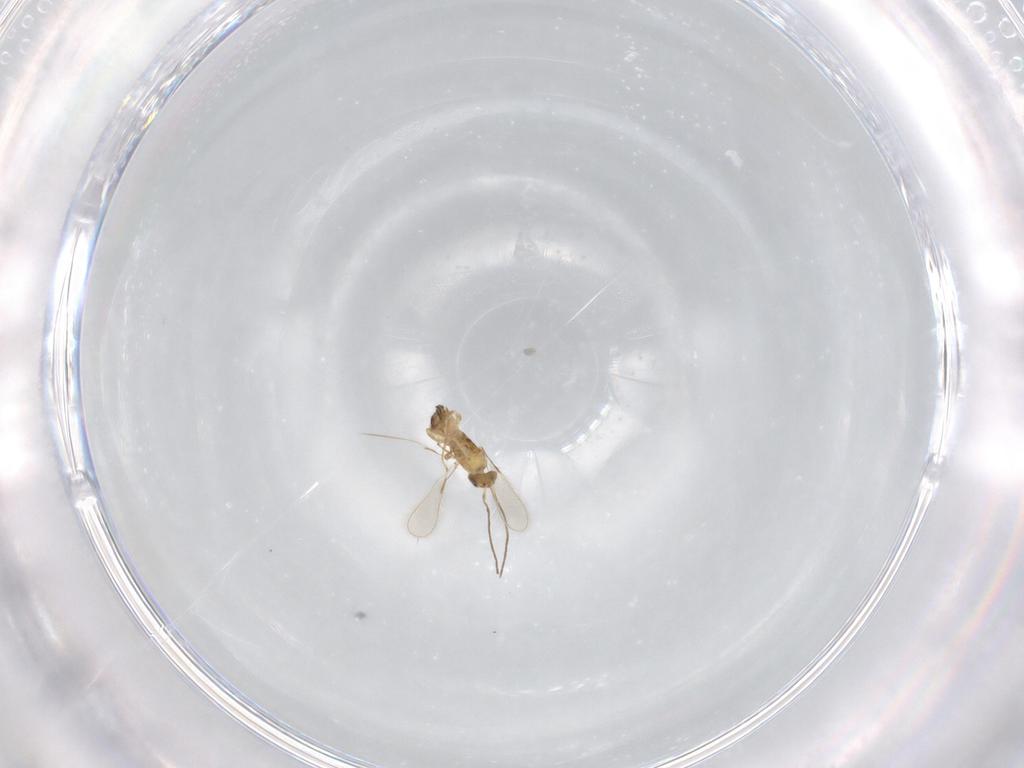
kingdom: Animalia
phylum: Arthropoda
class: Insecta
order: Hymenoptera
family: Mymaridae
